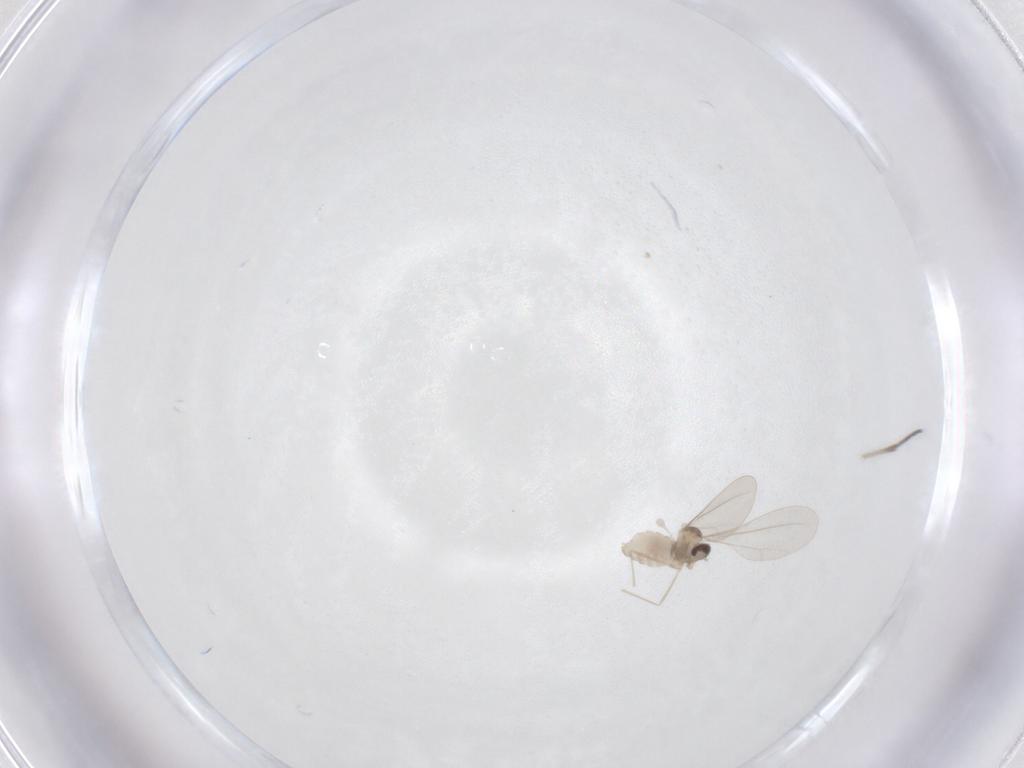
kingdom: Animalia
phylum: Arthropoda
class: Insecta
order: Diptera
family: Cecidomyiidae
